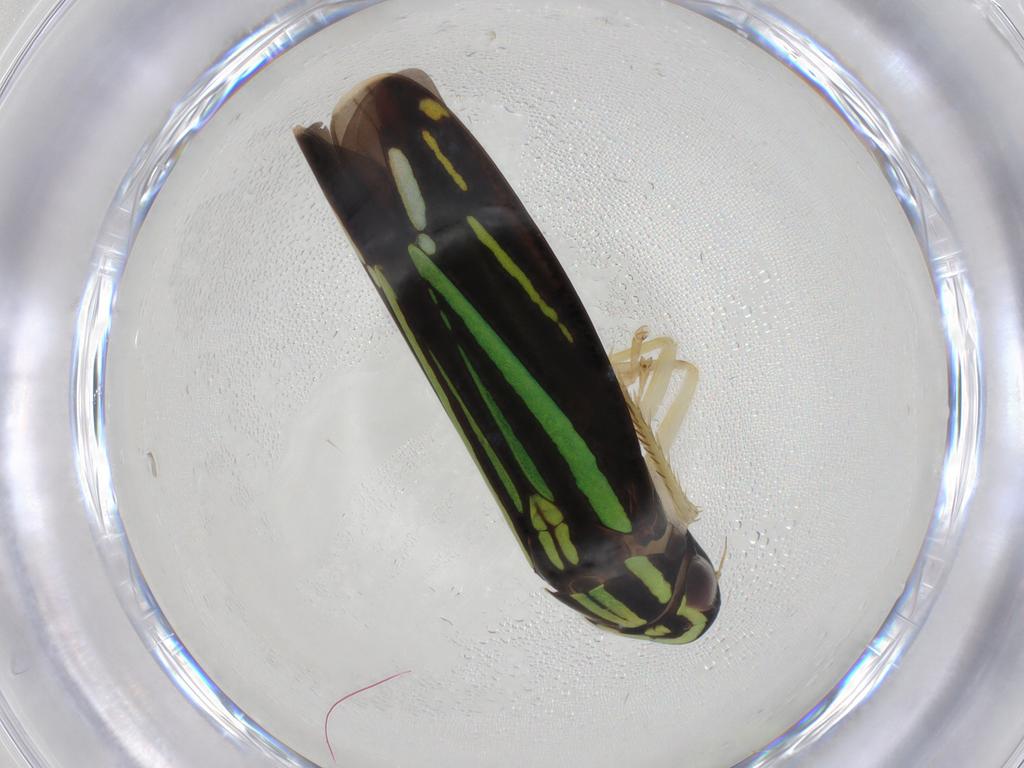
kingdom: Animalia
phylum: Arthropoda
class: Insecta
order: Hemiptera
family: Cicadellidae
